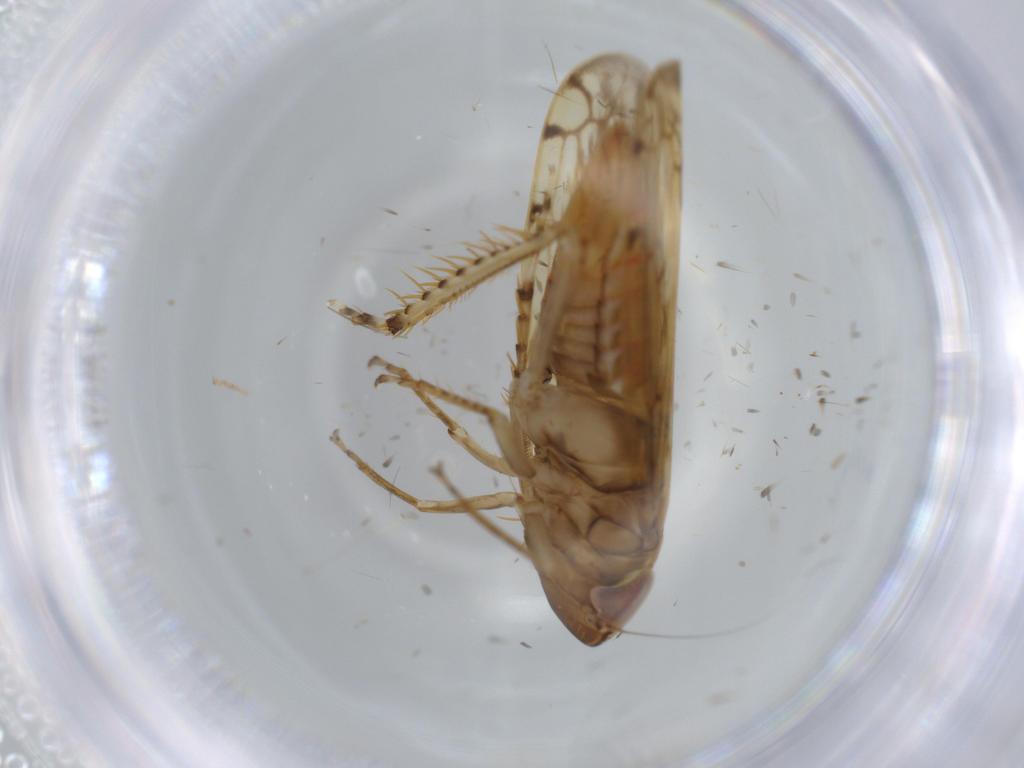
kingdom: Animalia
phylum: Arthropoda
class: Insecta
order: Hemiptera
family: Cicadellidae
